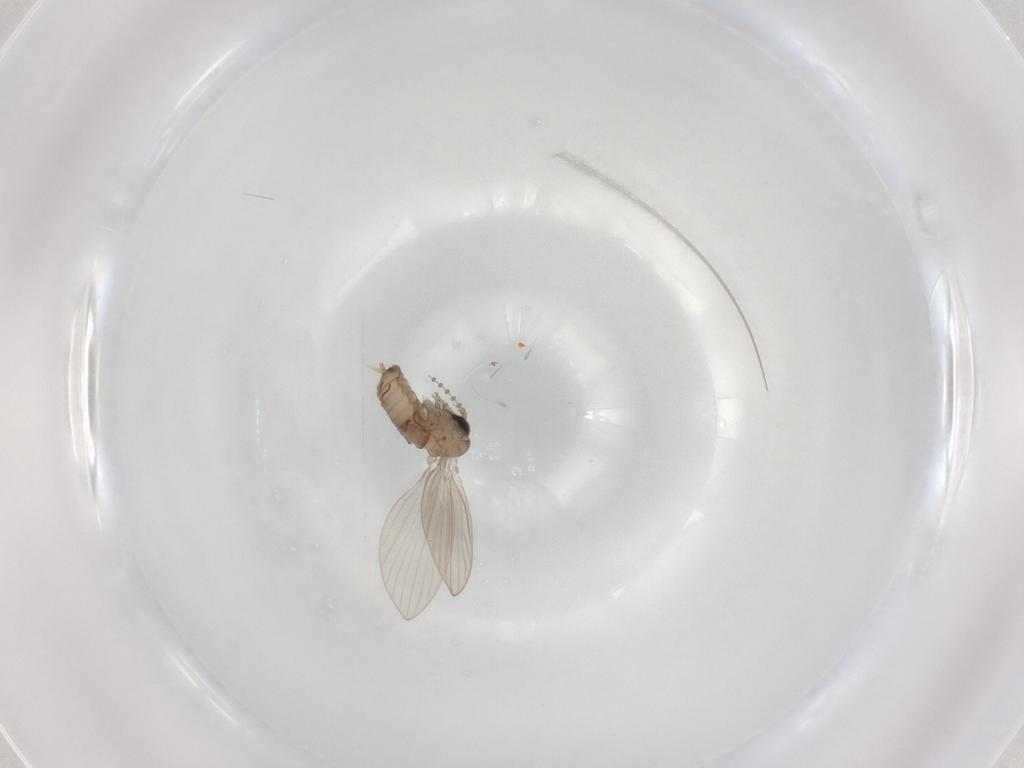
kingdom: Animalia
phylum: Arthropoda
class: Insecta
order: Diptera
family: Psychodidae
